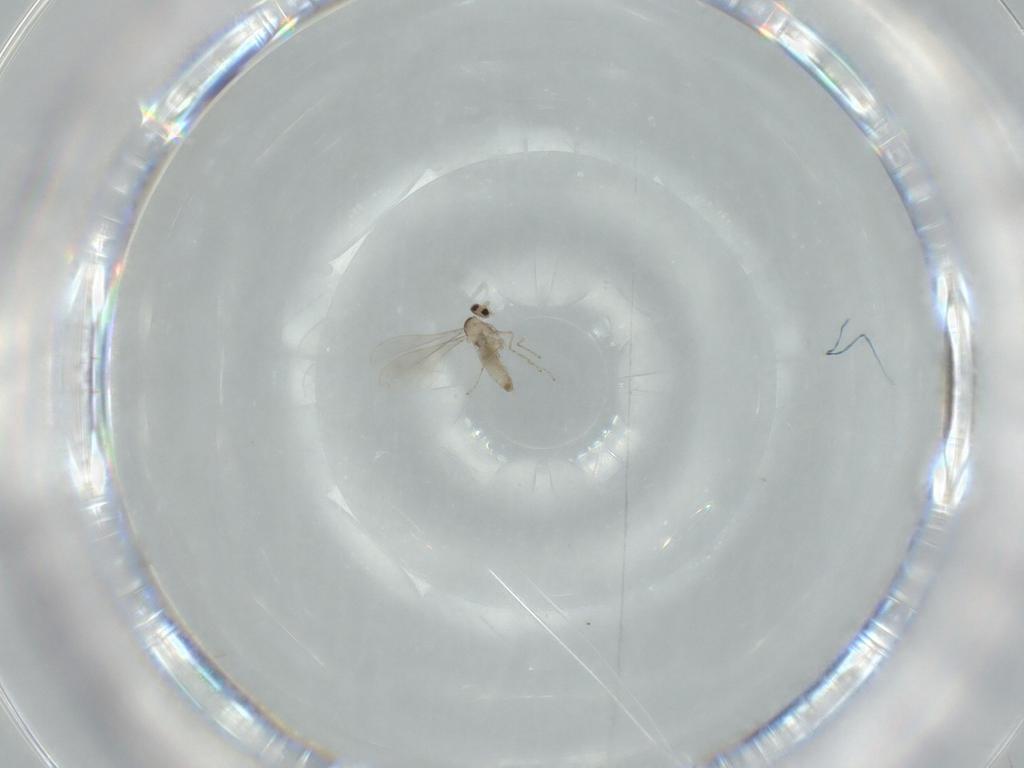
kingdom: Animalia
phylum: Arthropoda
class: Insecta
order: Diptera
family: Cecidomyiidae
